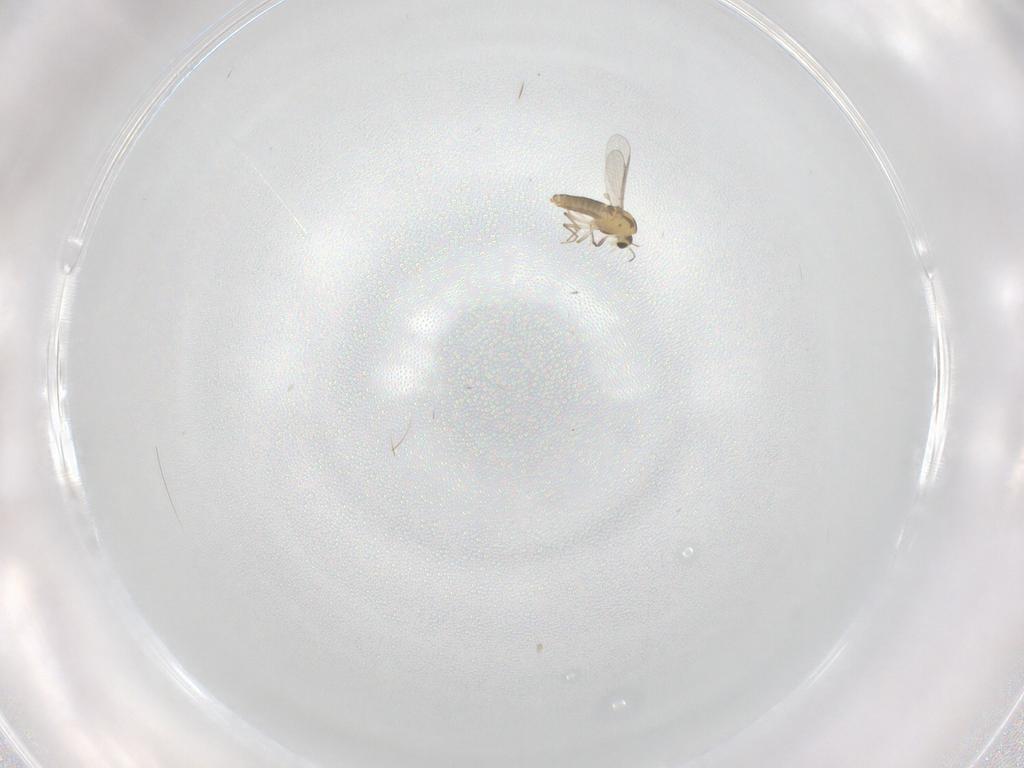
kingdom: Animalia
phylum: Arthropoda
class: Insecta
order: Diptera
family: Chironomidae
